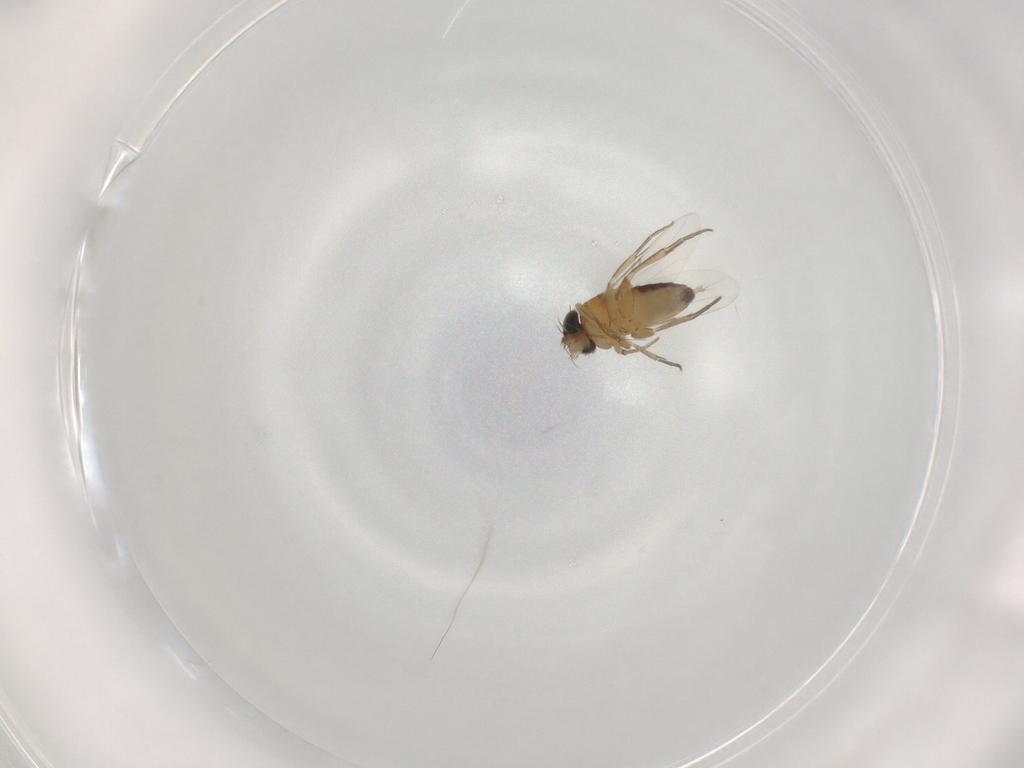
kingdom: Animalia
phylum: Arthropoda
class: Insecta
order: Diptera
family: Phoridae
